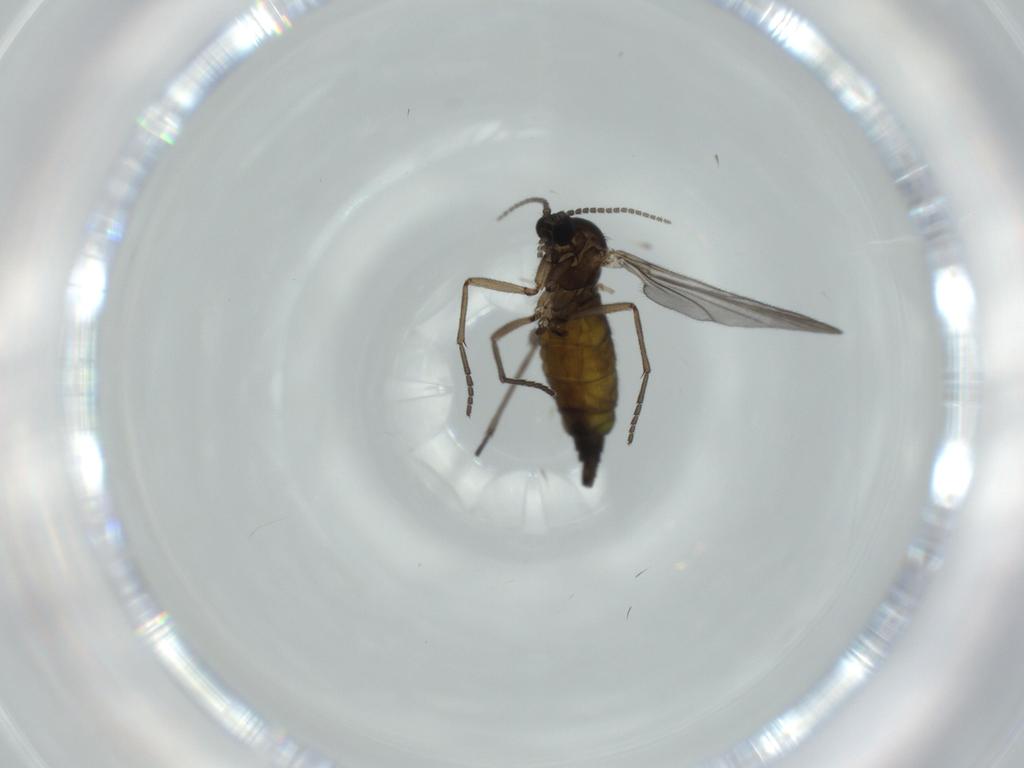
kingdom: Animalia
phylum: Arthropoda
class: Insecta
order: Diptera
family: Sciaridae
